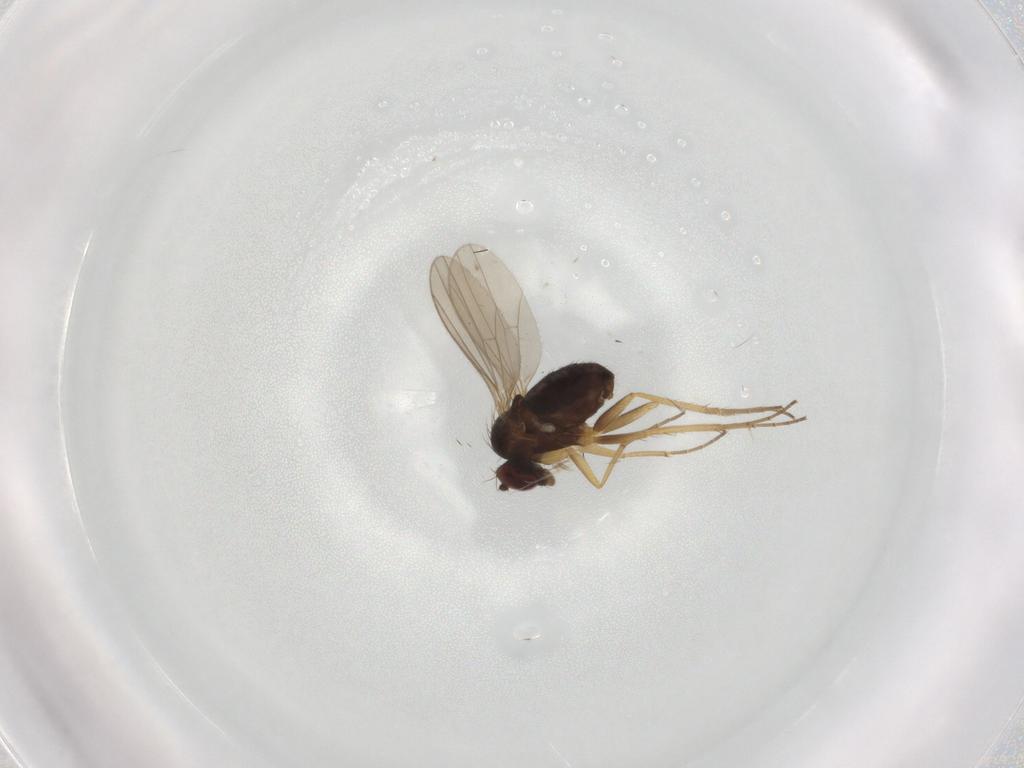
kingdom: Animalia
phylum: Arthropoda
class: Insecta
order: Diptera
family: Dolichopodidae
